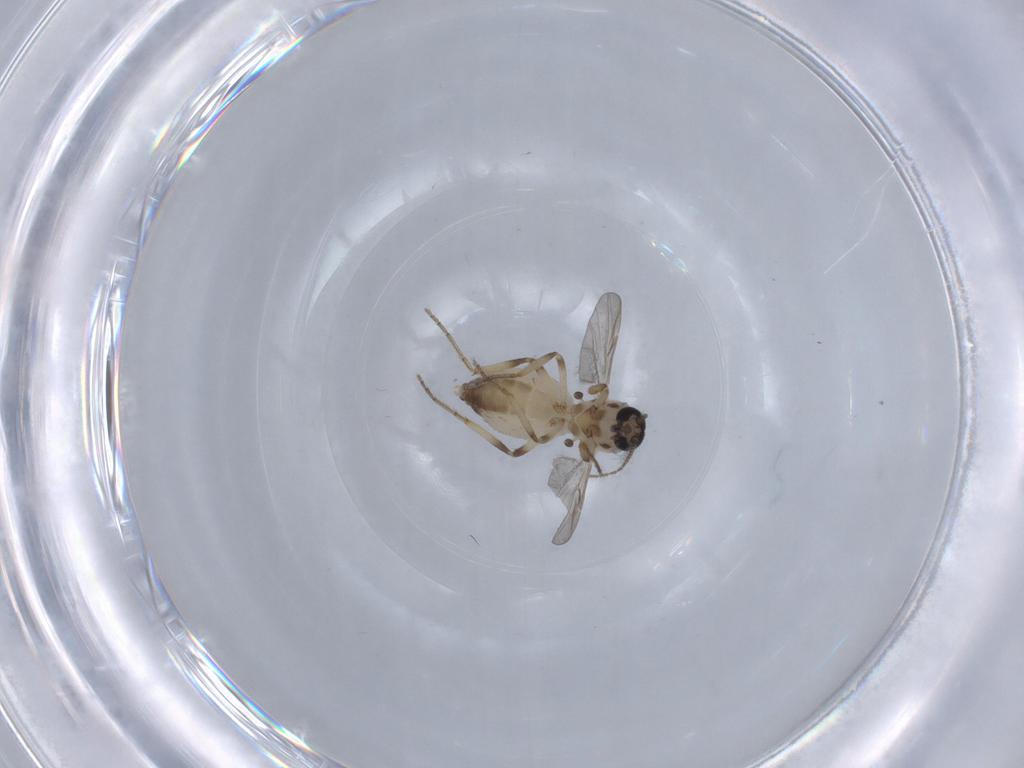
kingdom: Animalia
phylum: Arthropoda
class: Insecta
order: Diptera
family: Ceratopogonidae
